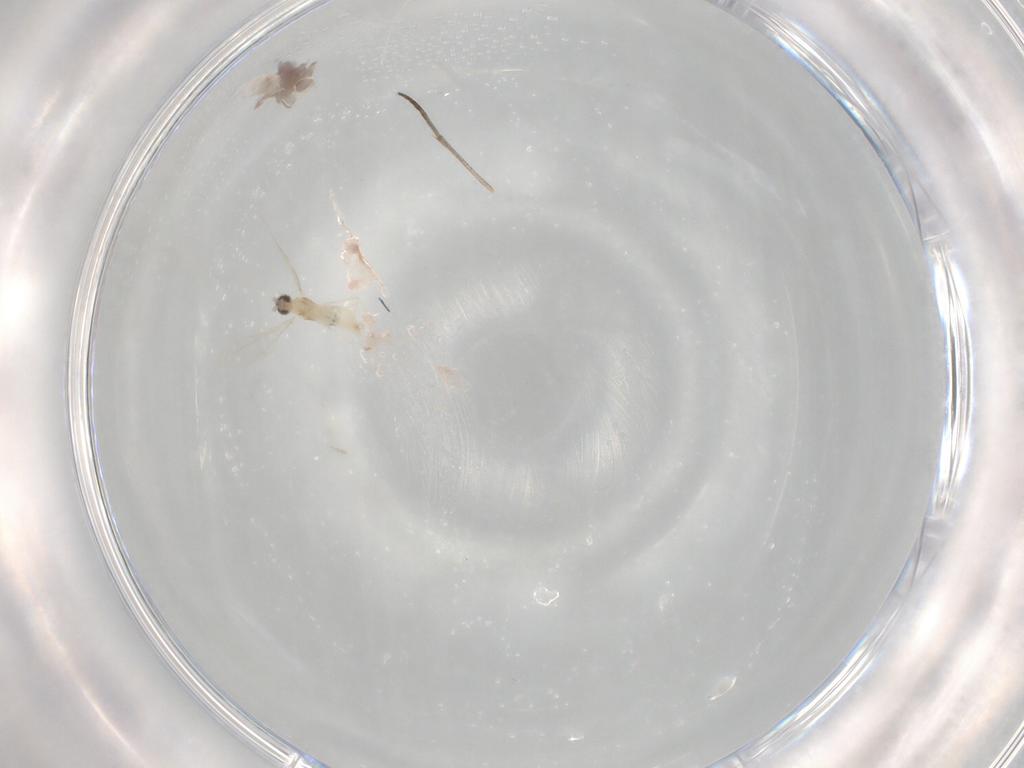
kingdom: Animalia
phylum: Arthropoda
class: Insecta
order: Diptera
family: Sciaridae
